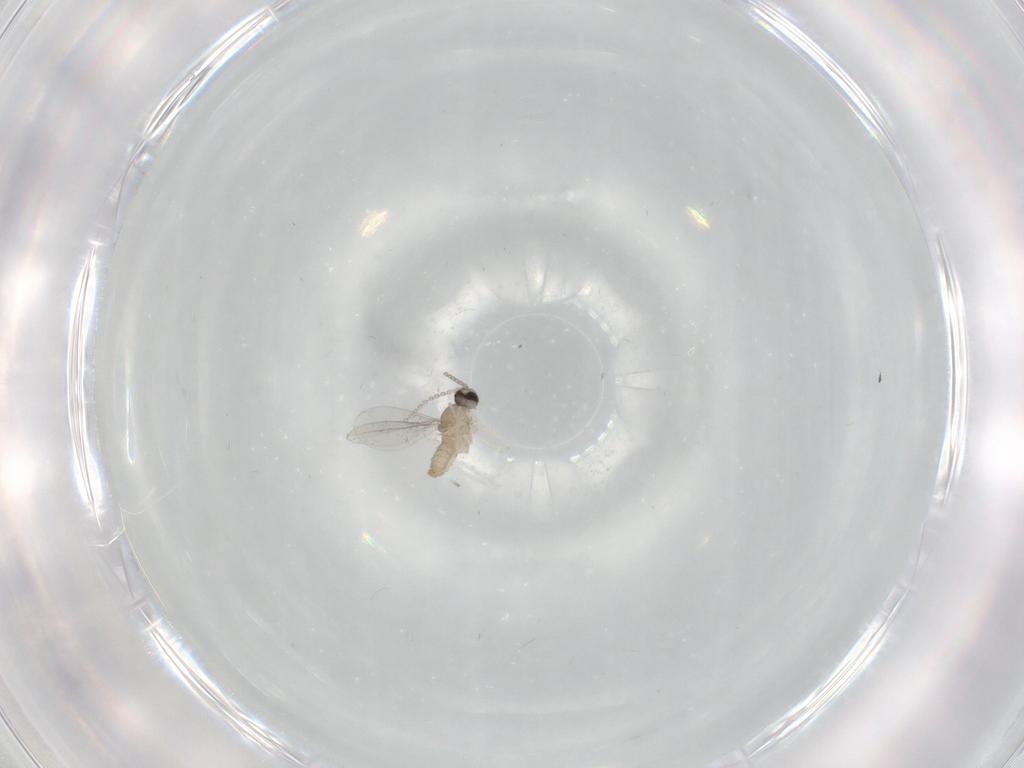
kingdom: Animalia
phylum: Arthropoda
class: Insecta
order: Diptera
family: Cecidomyiidae
